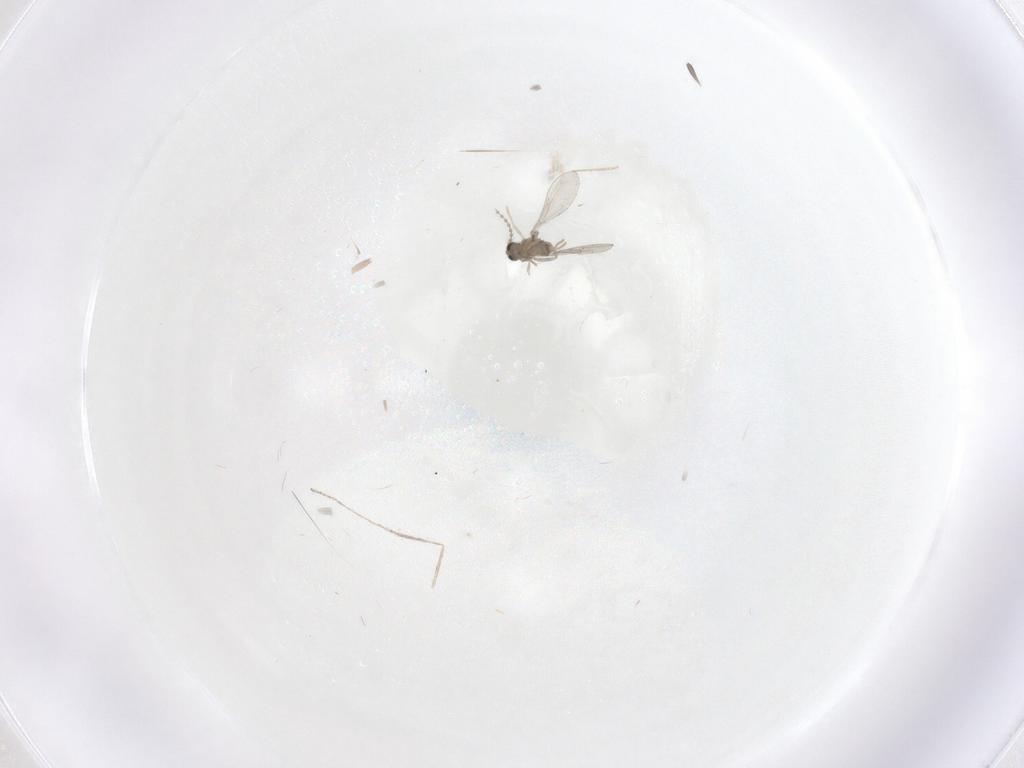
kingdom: Animalia
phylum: Arthropoda
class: Insecta
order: Diptera
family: Cecidomyiidae
